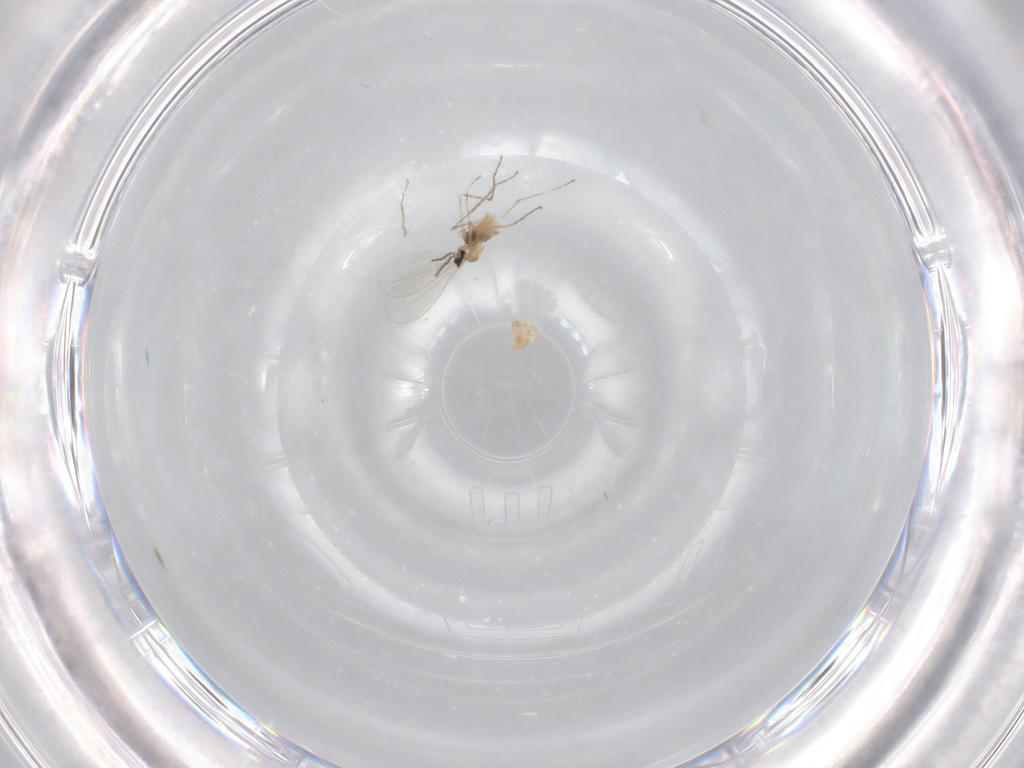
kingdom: Animalia
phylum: Arthropoda
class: Insecta
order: Diptera
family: Cecidomyiidae
